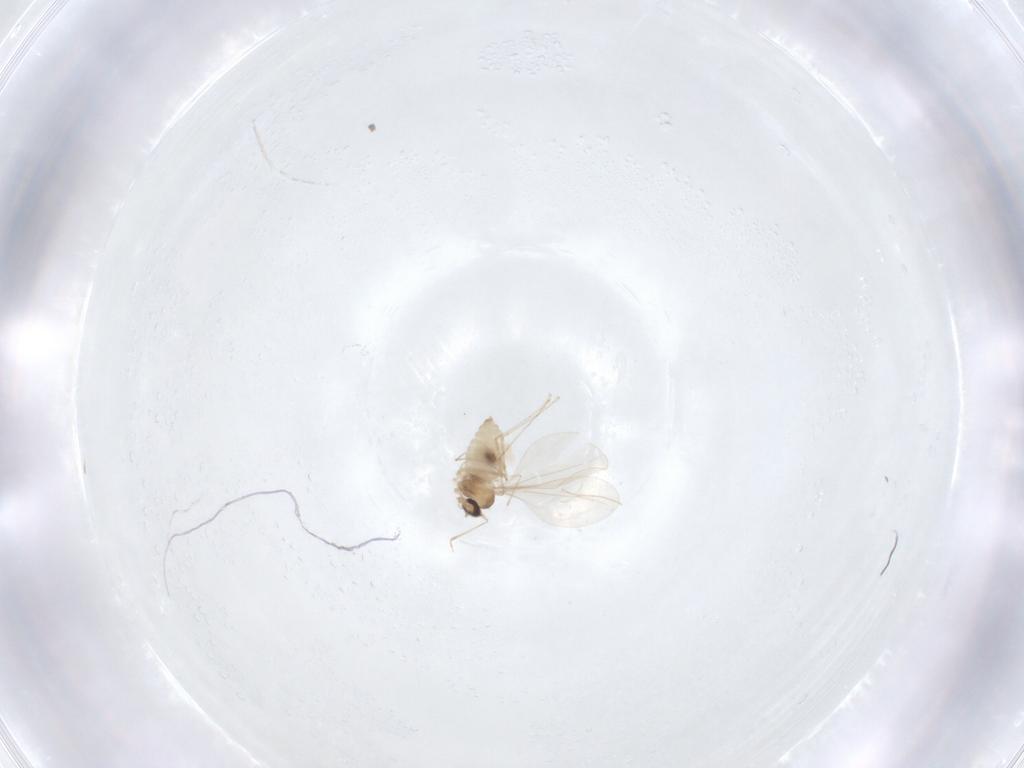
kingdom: Animalia
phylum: Arthropoda
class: Insecta
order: Diptera
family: Cecidomyiidae
